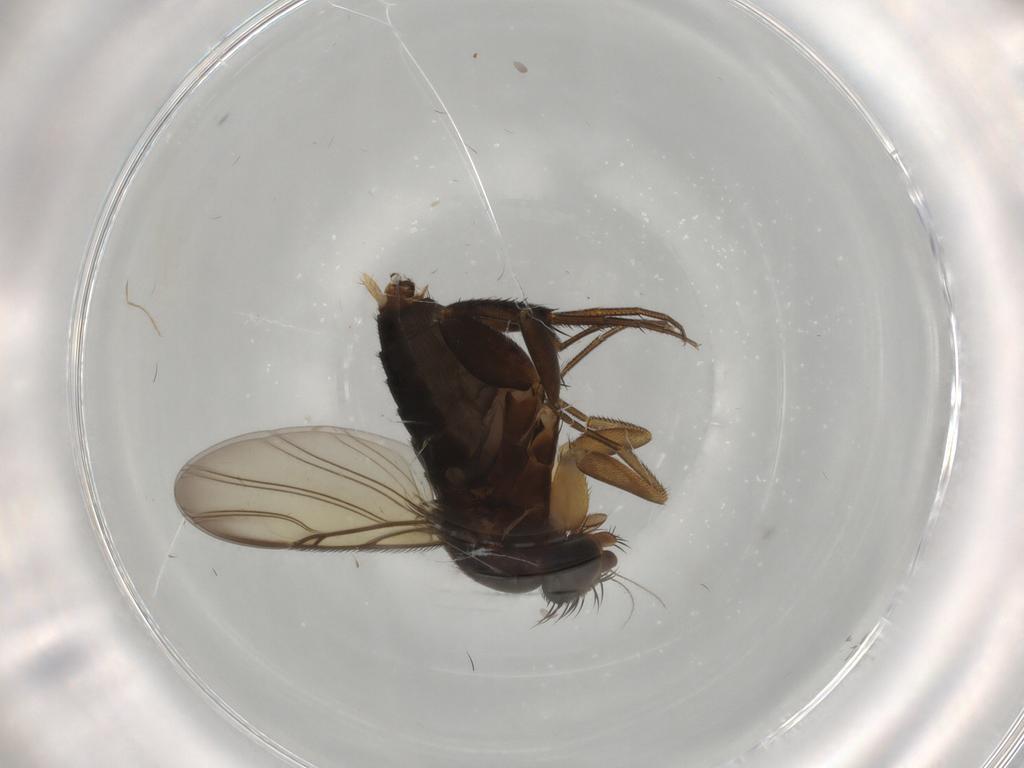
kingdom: Animalia
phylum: Arthropoda
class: Insecta
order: Diptera
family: Phoridae
